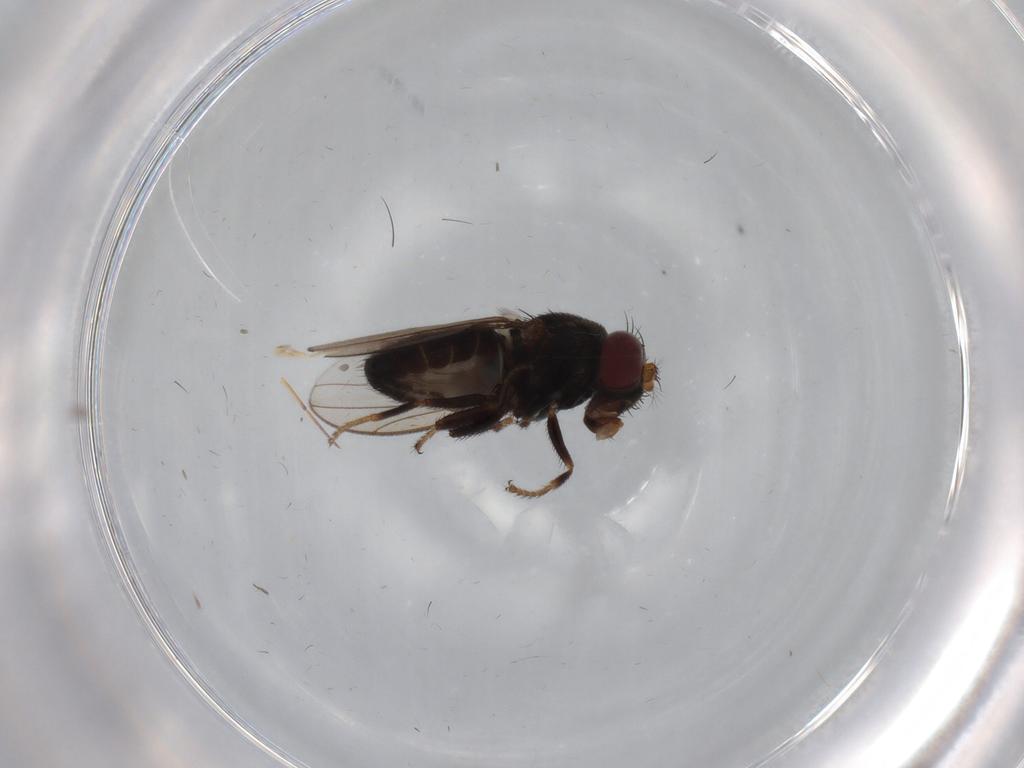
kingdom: Animalia
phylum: Arthropoda
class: Insecta
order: Diptera
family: Ephydridae
